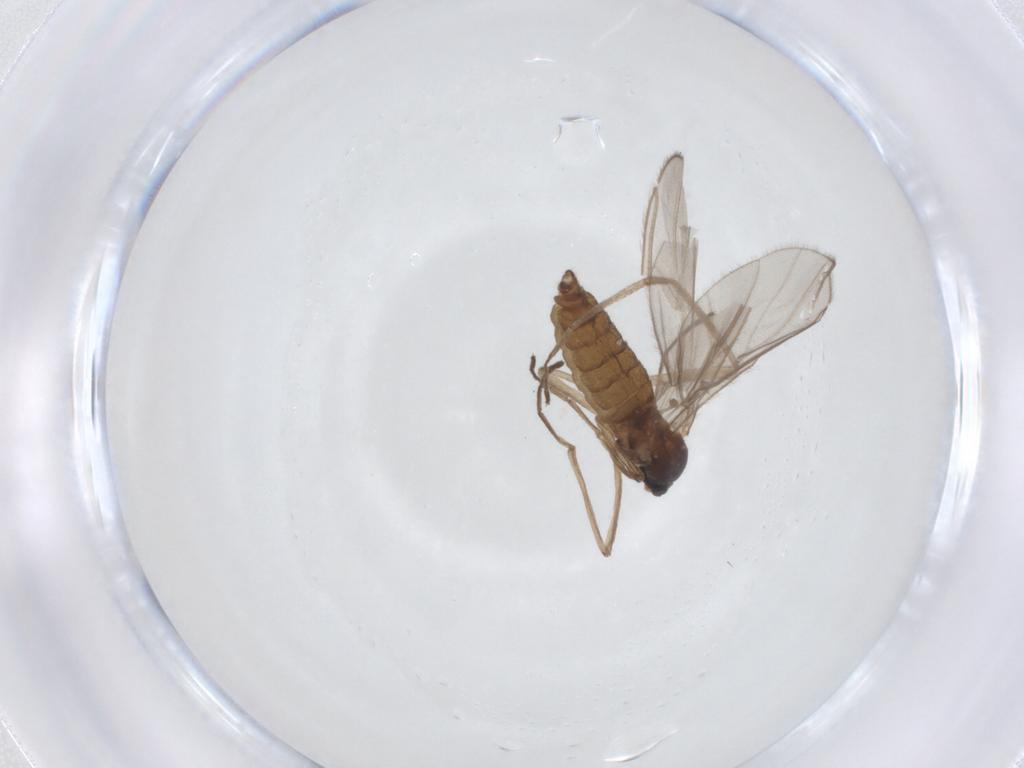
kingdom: Animalia
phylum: Arthropoda
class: Insecta
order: Diptera
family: Cecidomyiidae
